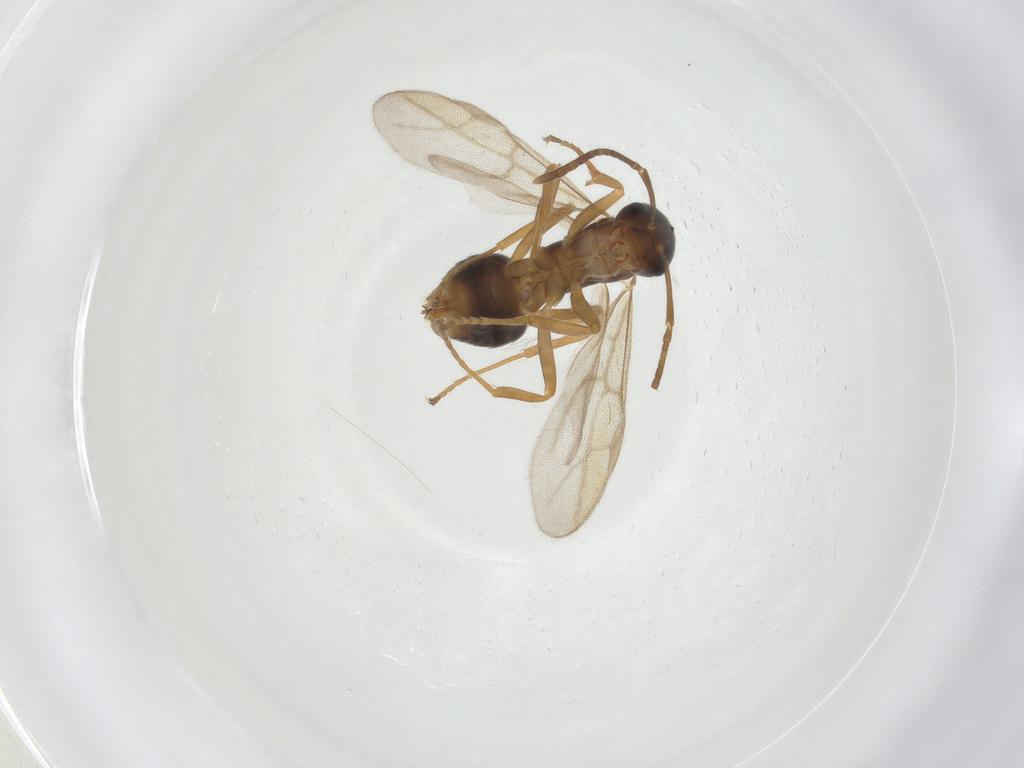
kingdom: Animalia
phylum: Arthropoda
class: Insecta
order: Hymenoptera
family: Formicidae
